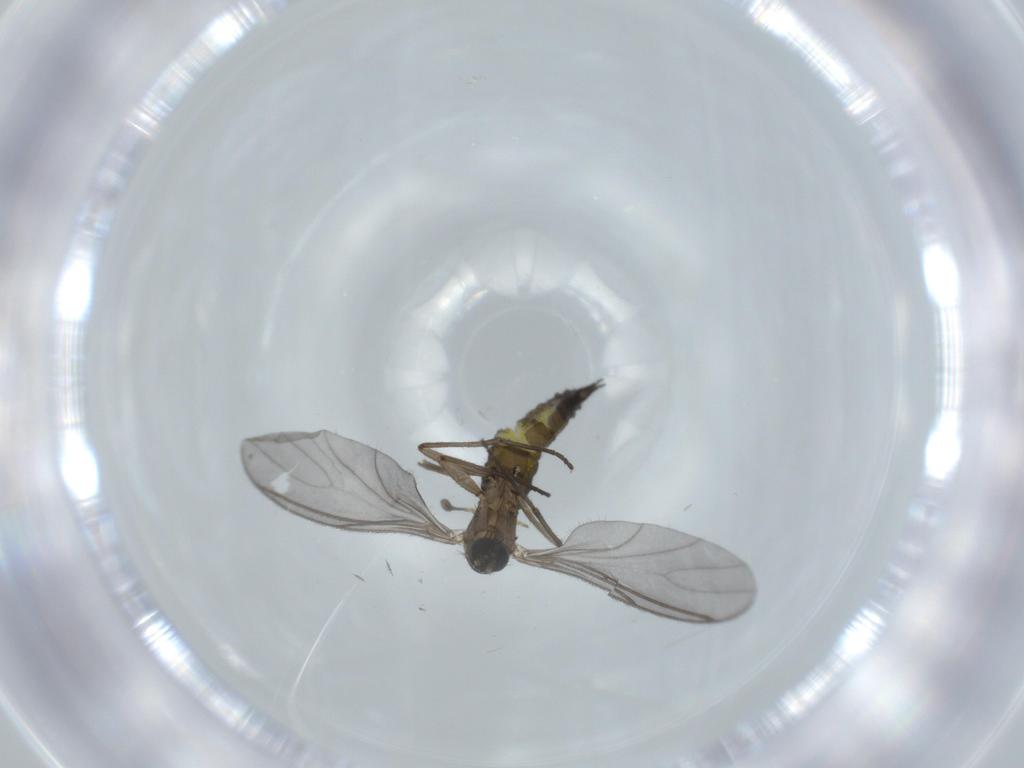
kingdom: Animalia
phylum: Arthropoda
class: Insecta
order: Diptera
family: Sciaridae
